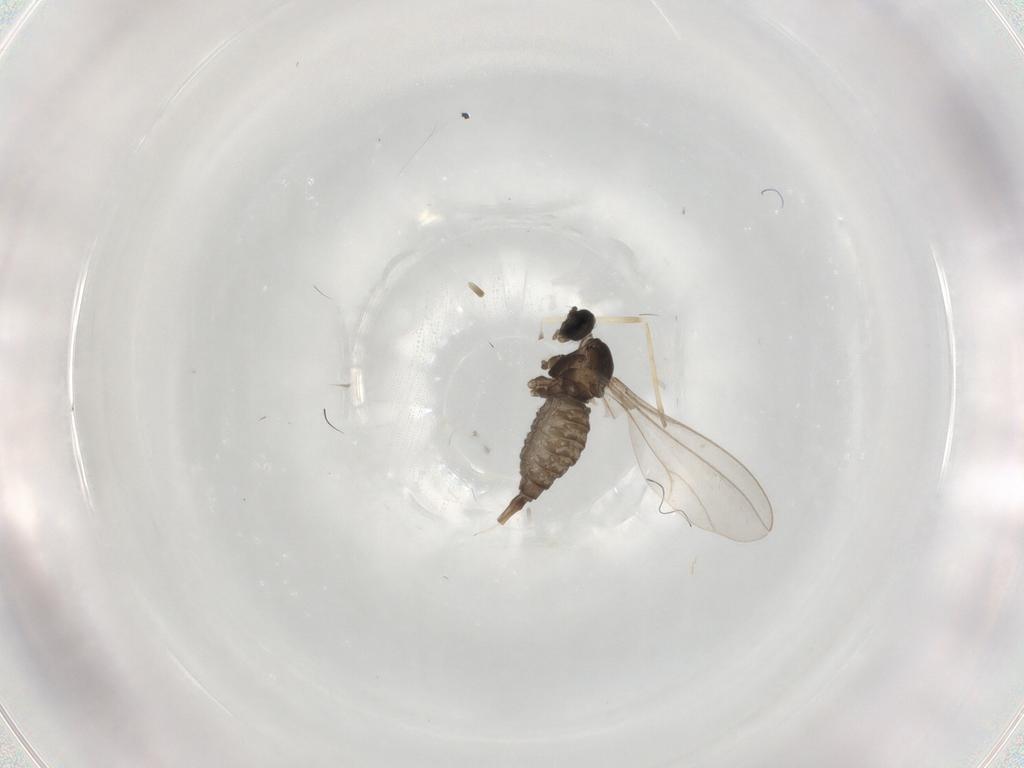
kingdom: Animalia
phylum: Arthropoda
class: Insecta
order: Diptera
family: Cecidomyiidae
